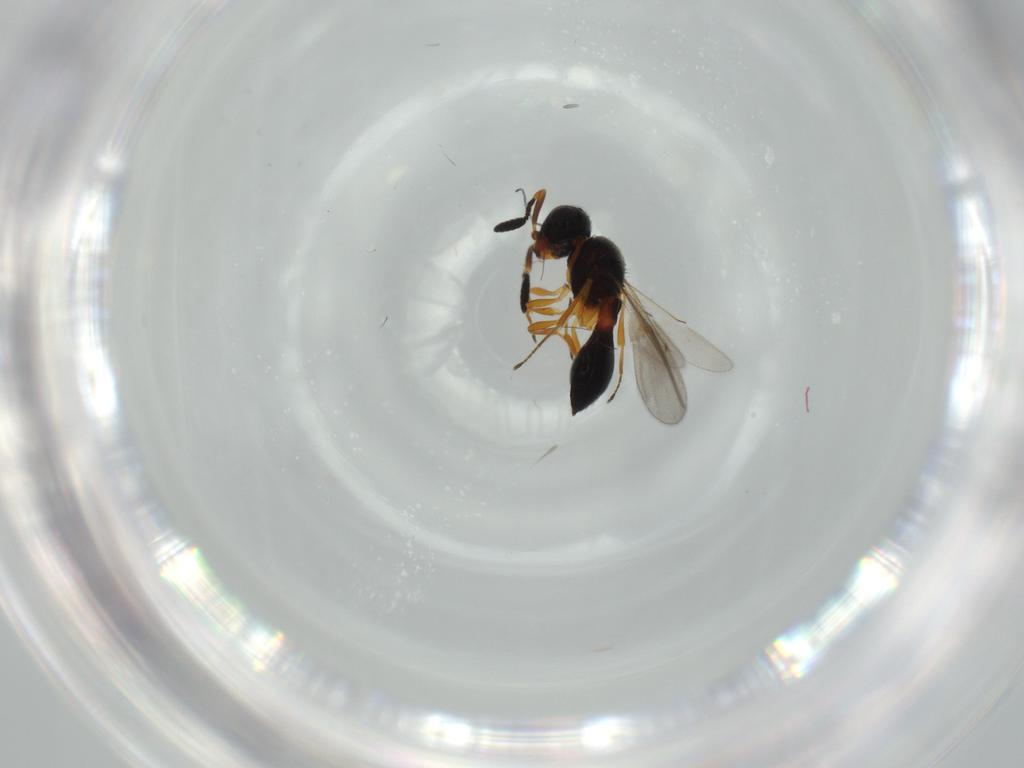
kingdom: Animalia
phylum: Arthropoda
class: Insecta
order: Hymenoptera
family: Scelionidae
